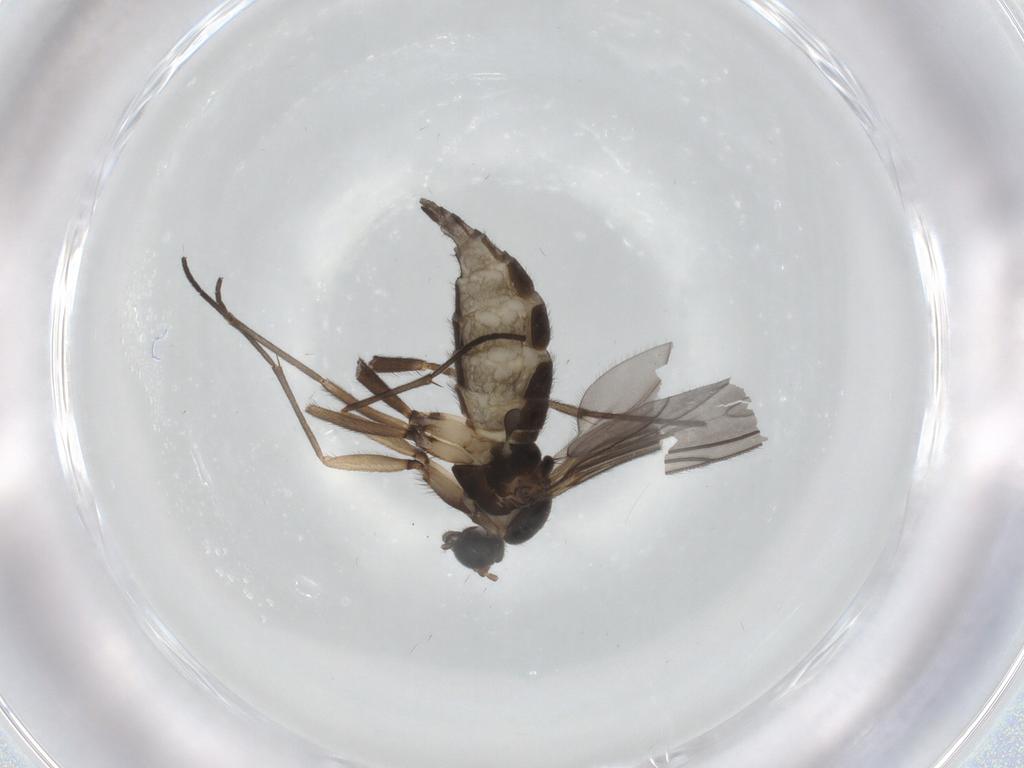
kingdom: Animalia
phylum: Arthropoda
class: Insecta
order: Diptera
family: Sciaridae
